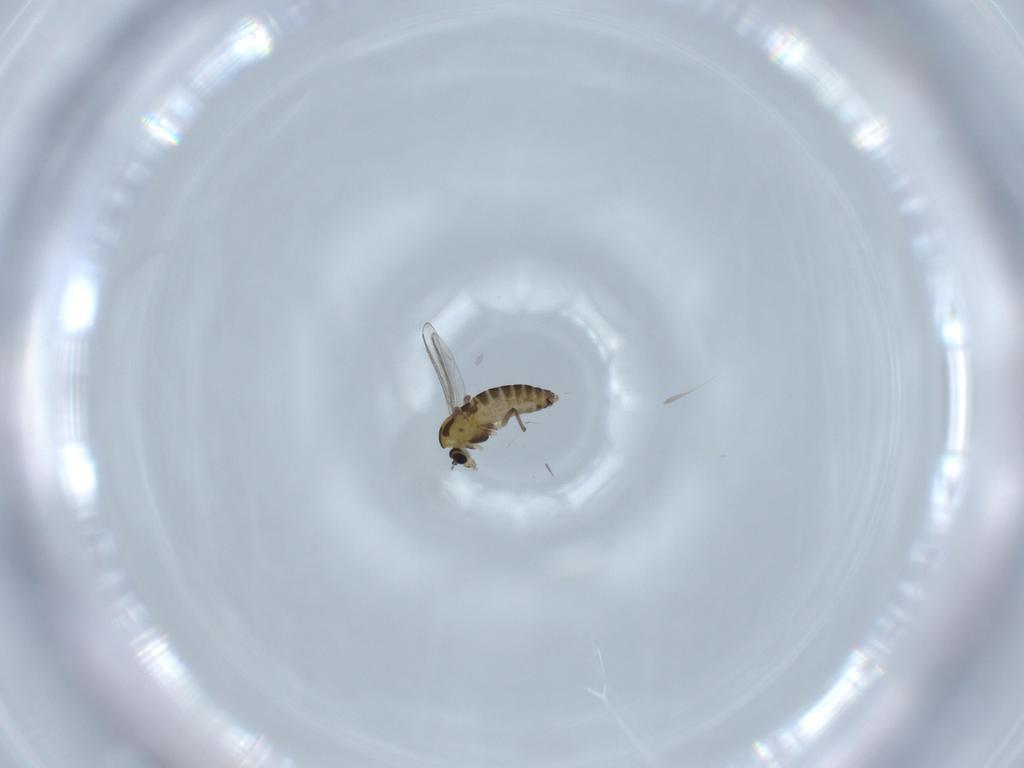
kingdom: Animalia
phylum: Arthropoda
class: Insecta
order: Diptera
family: Chironomidae
